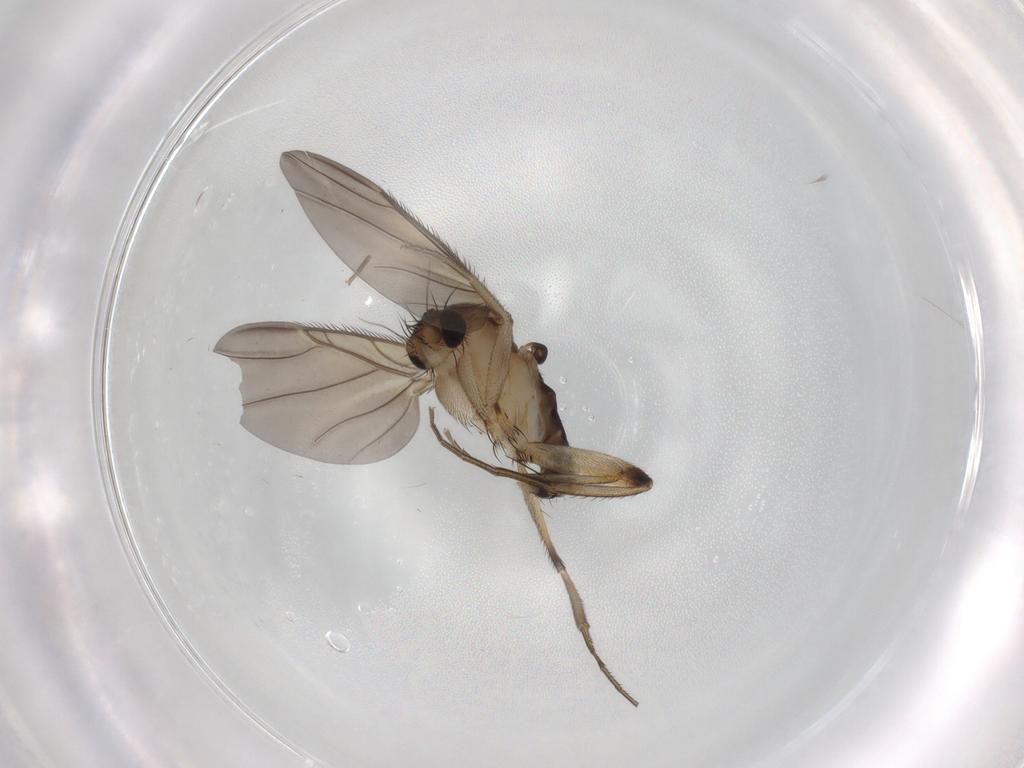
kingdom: Animalia
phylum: Arthropoda
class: Insecta
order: Diptera
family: Phoridae
